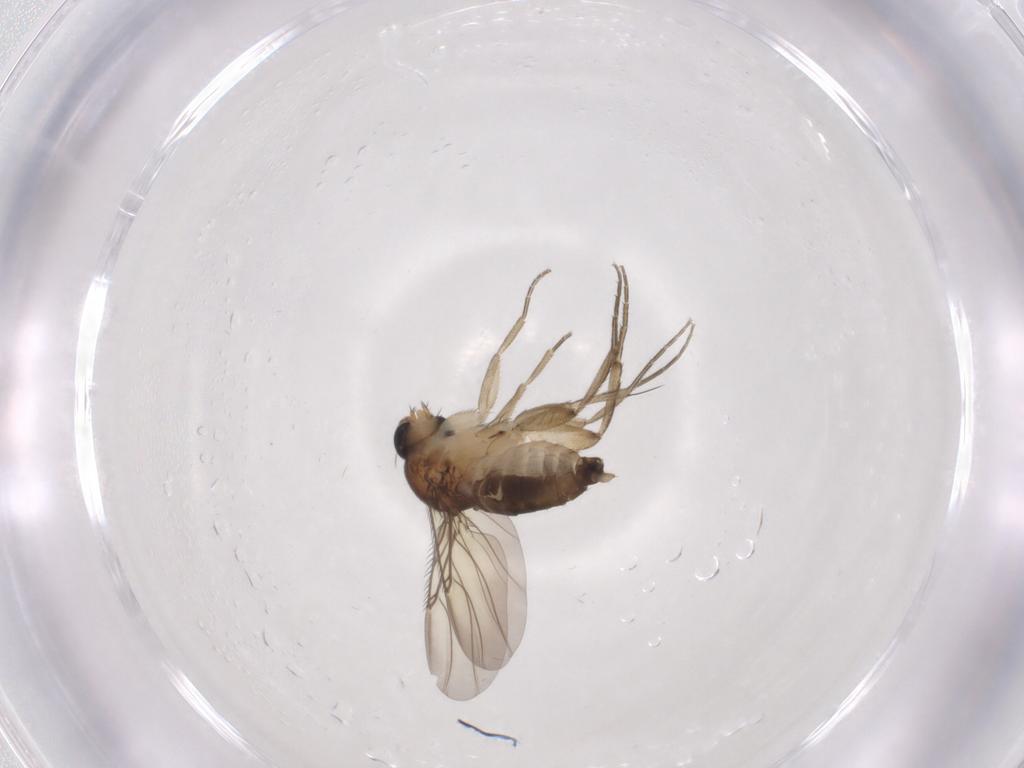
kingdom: Animalia
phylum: Arthropoda
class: Insecta
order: Diptera
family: Phoridae
